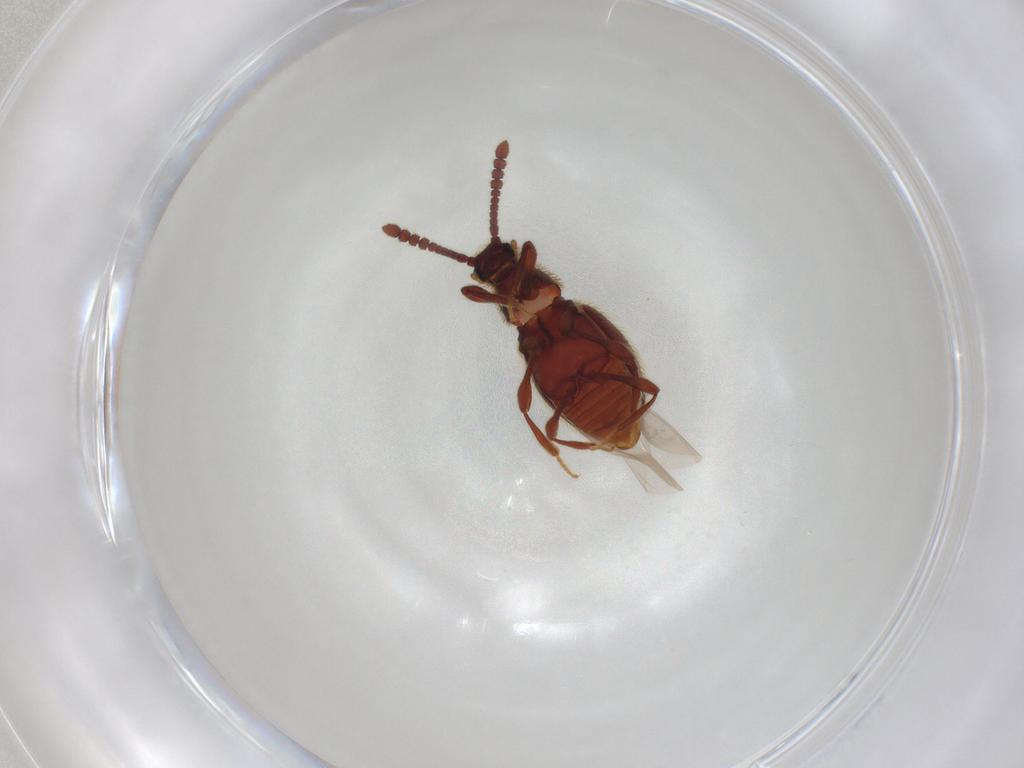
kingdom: Animalia
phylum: Arthropoda
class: Insecta
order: Coleoptera
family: Staphylinidae
